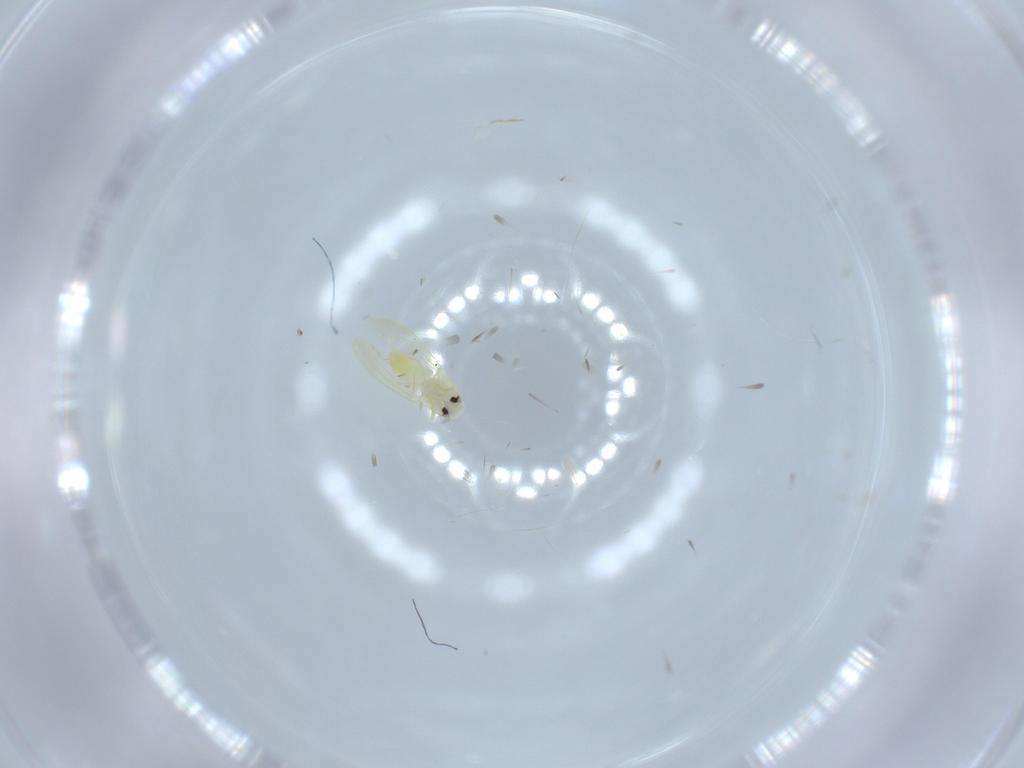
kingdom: Animalia
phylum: Arthropoda
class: Insecta
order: Hemiptera
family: Aleyrodidae
